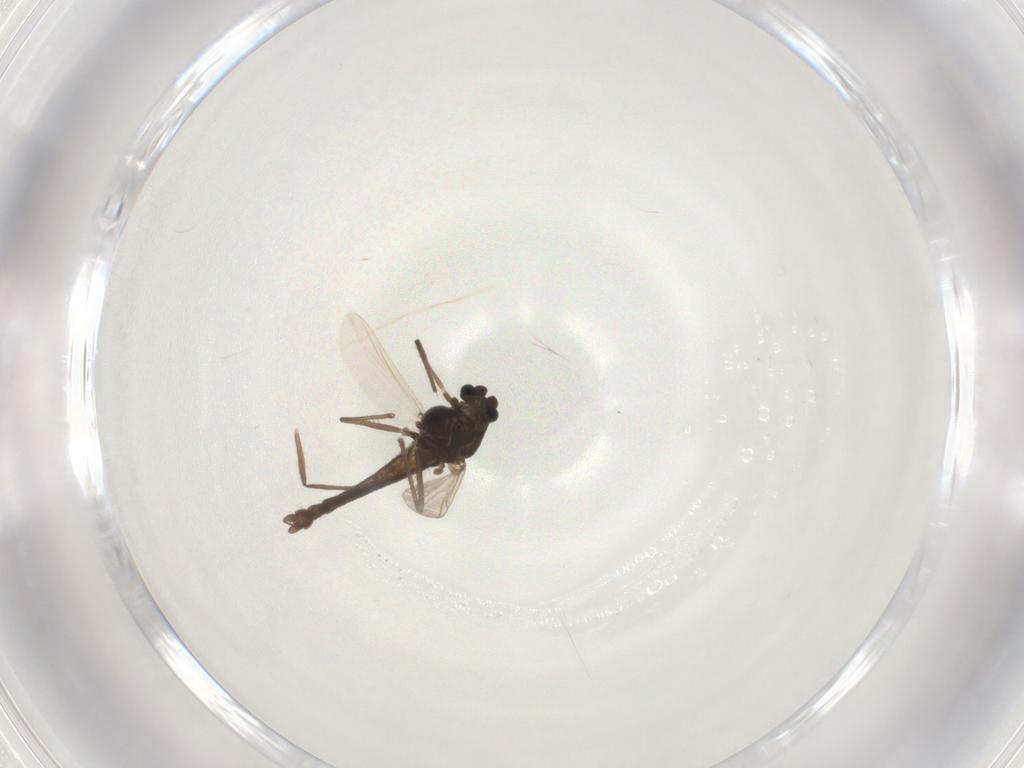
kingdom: Animalia
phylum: Arthropoda
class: Insecta
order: Diptera
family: Chironomidae
